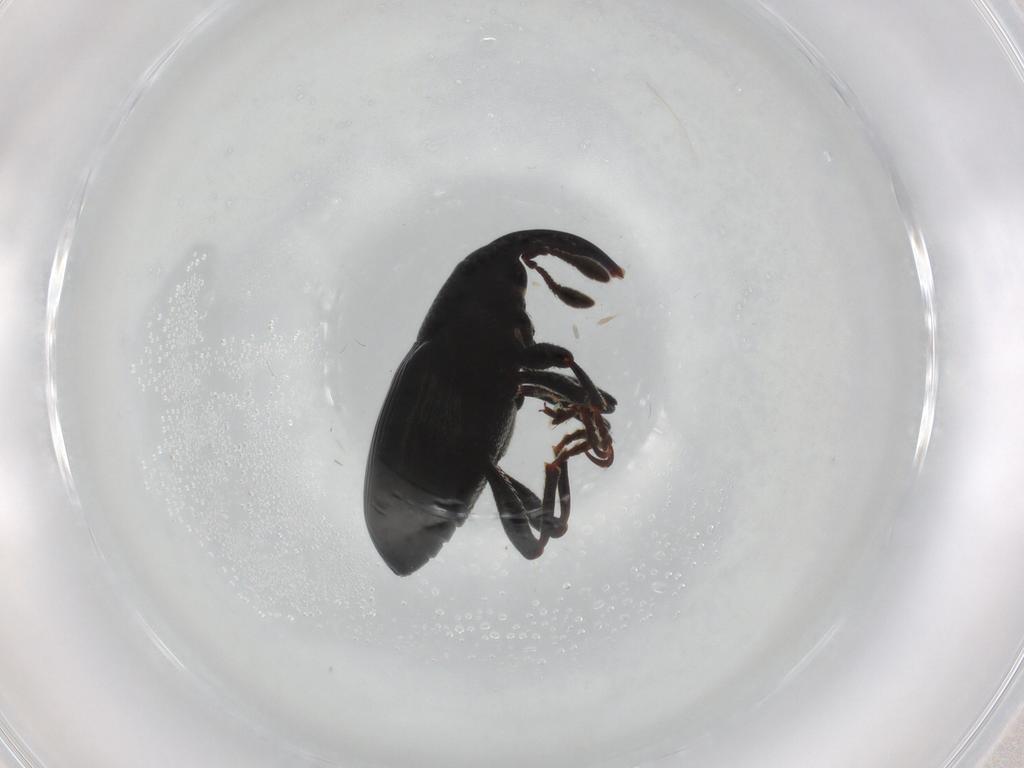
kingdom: Animalia
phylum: Arthropoda
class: Insecta
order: Coleoptera
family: Curculionidae
